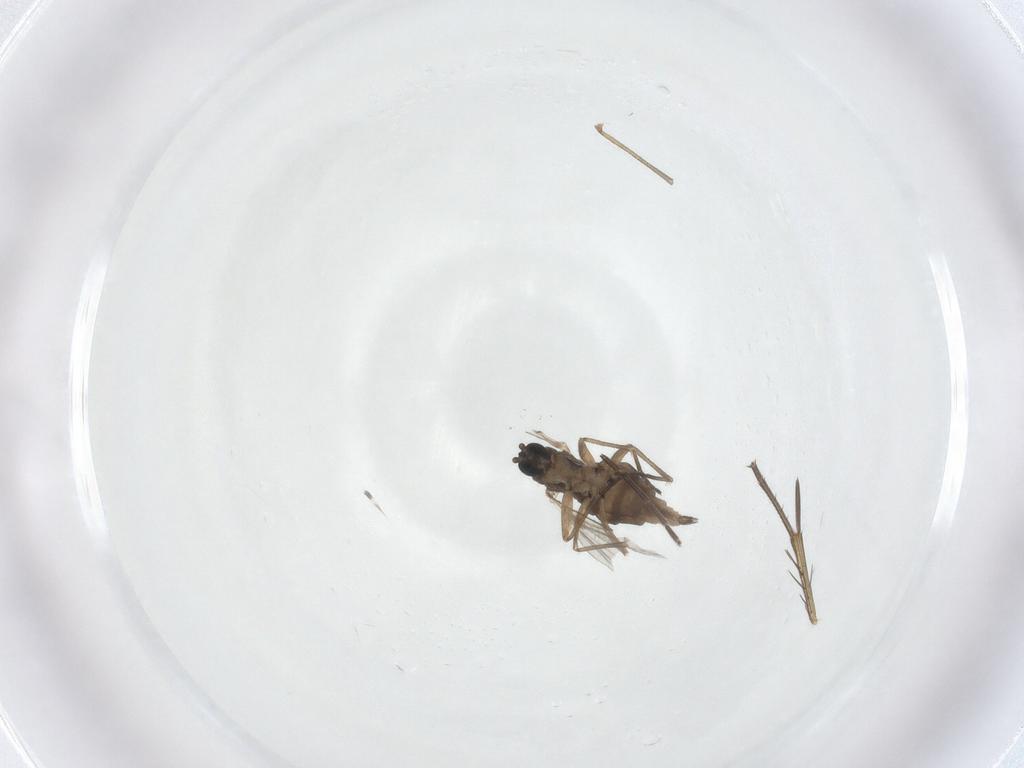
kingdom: Animalia
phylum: Arthropoda
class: Insecta
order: Diptera
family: Sciaridae
